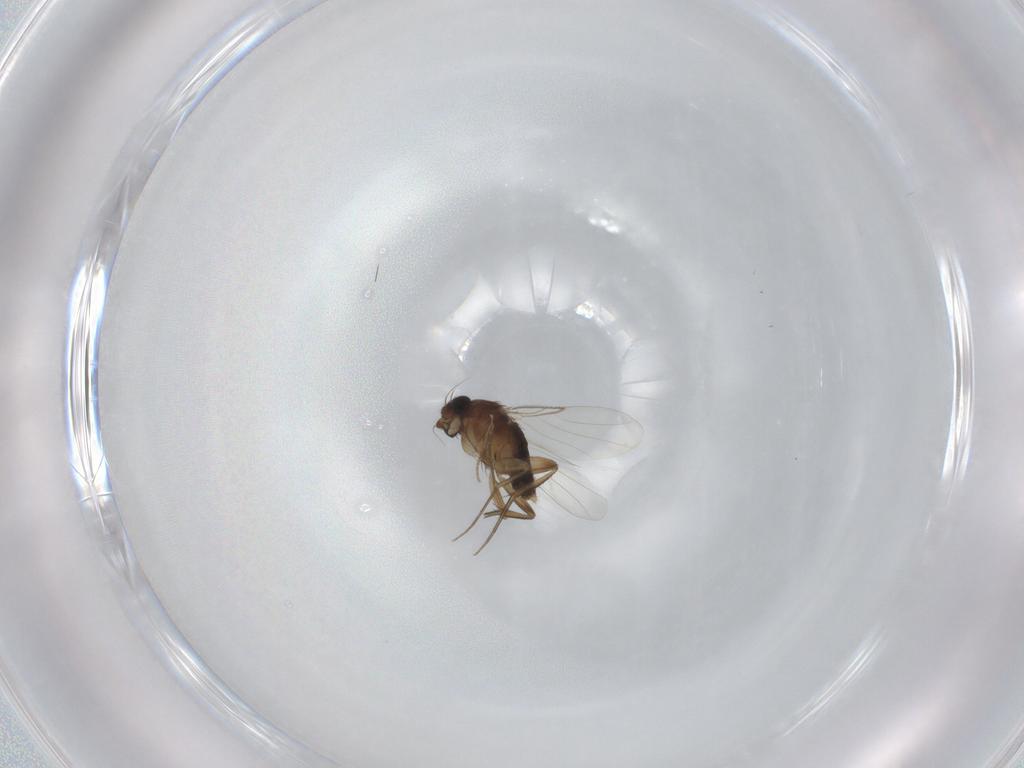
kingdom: Animalia
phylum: Arthropoda
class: Insecta
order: Diptera
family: Phoridae
